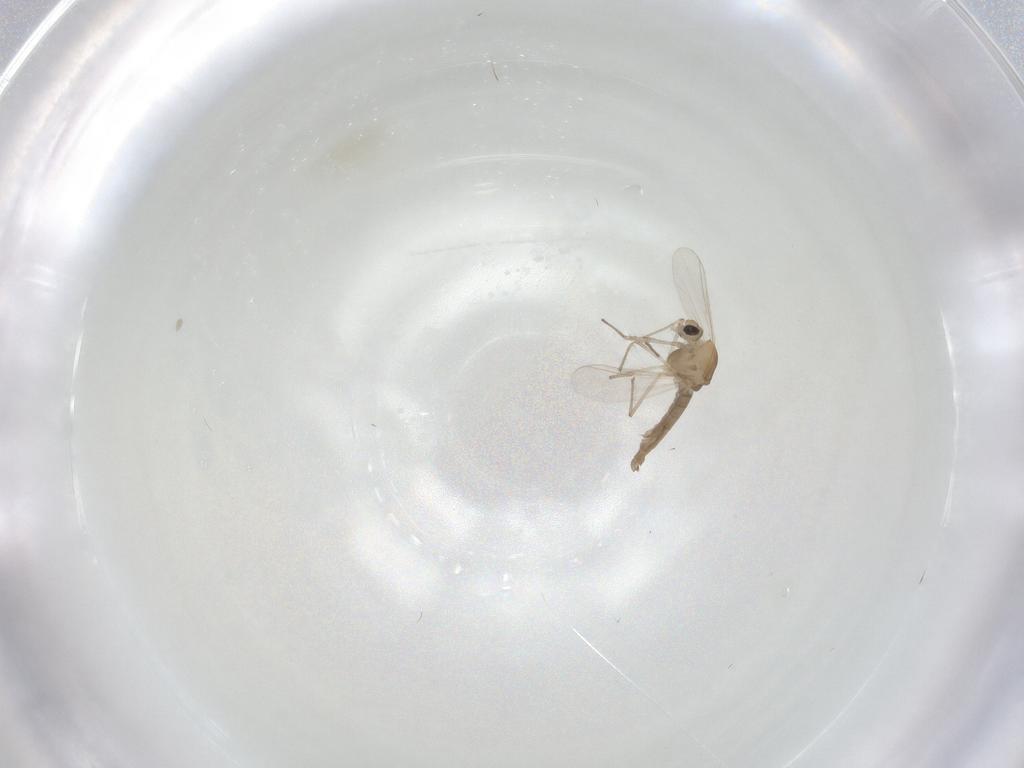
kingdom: Animalia
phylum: Arthropoda
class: Insecta
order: Diptera
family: Chironomidae
